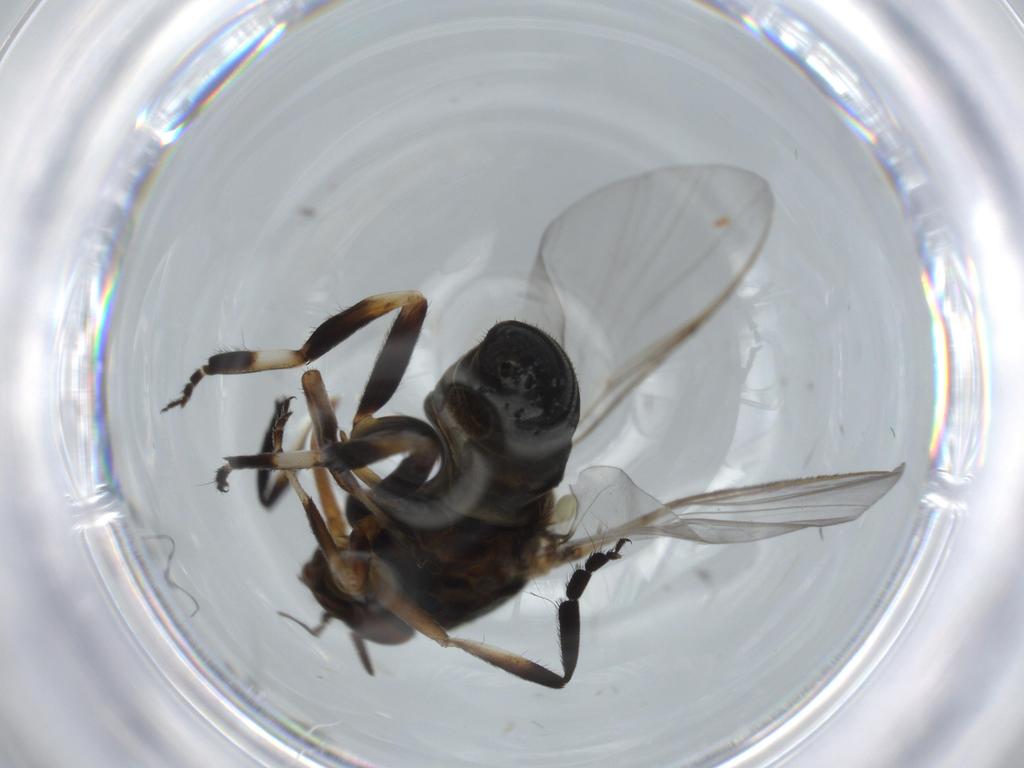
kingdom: Animalia
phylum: Arthropoda
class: Insecta
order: Diptera
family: Cecidomyiidae
